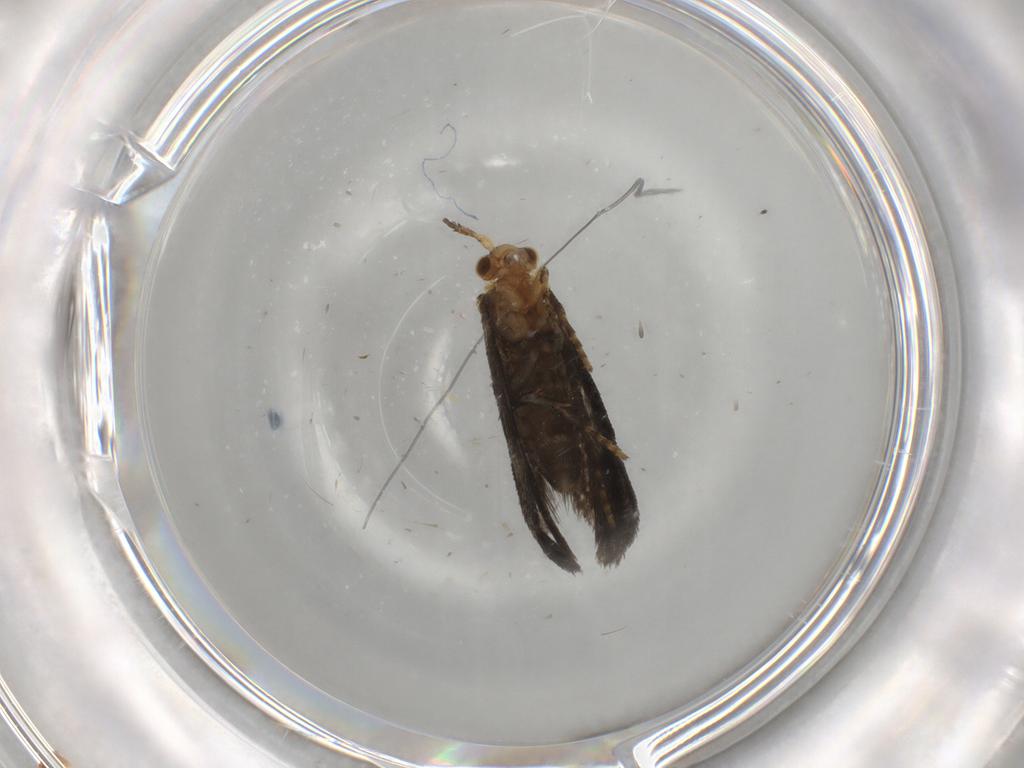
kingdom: Animalia
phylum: Arthropoda
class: Insecta
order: Lepidoptera
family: Micropterigidae
